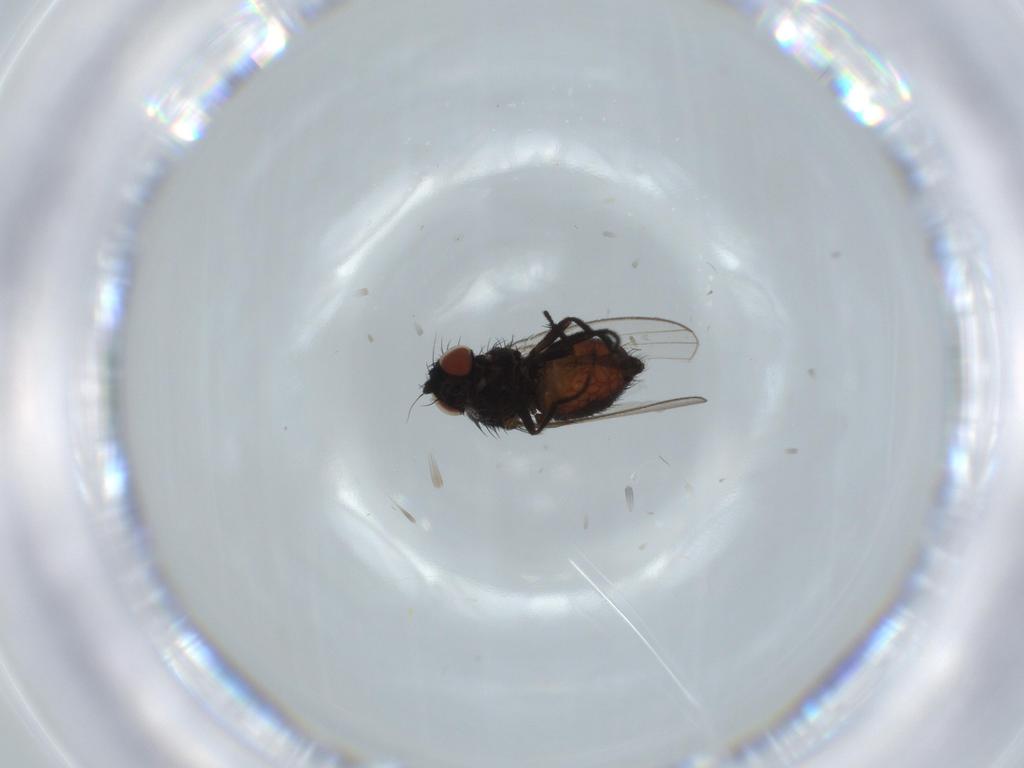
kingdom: Animalia
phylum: Arthropoda
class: Insecta
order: Diptera
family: Milichiidae
